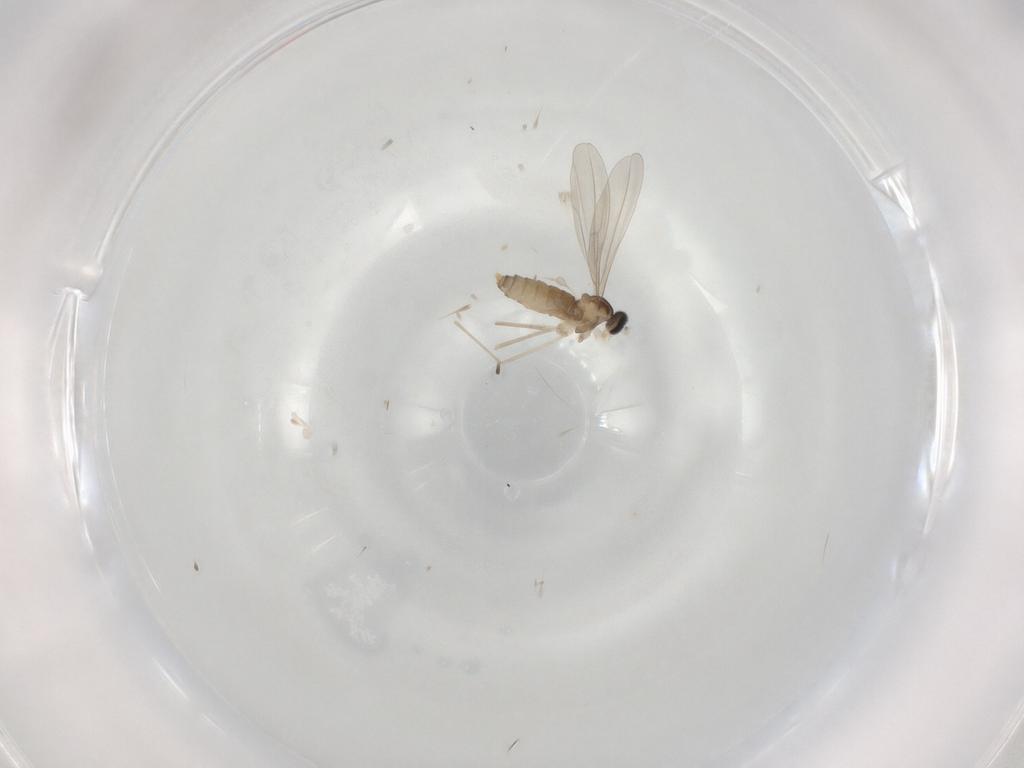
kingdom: Animalia
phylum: Arthropoda
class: Insecta
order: Diptera
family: Cecidomyiidae
